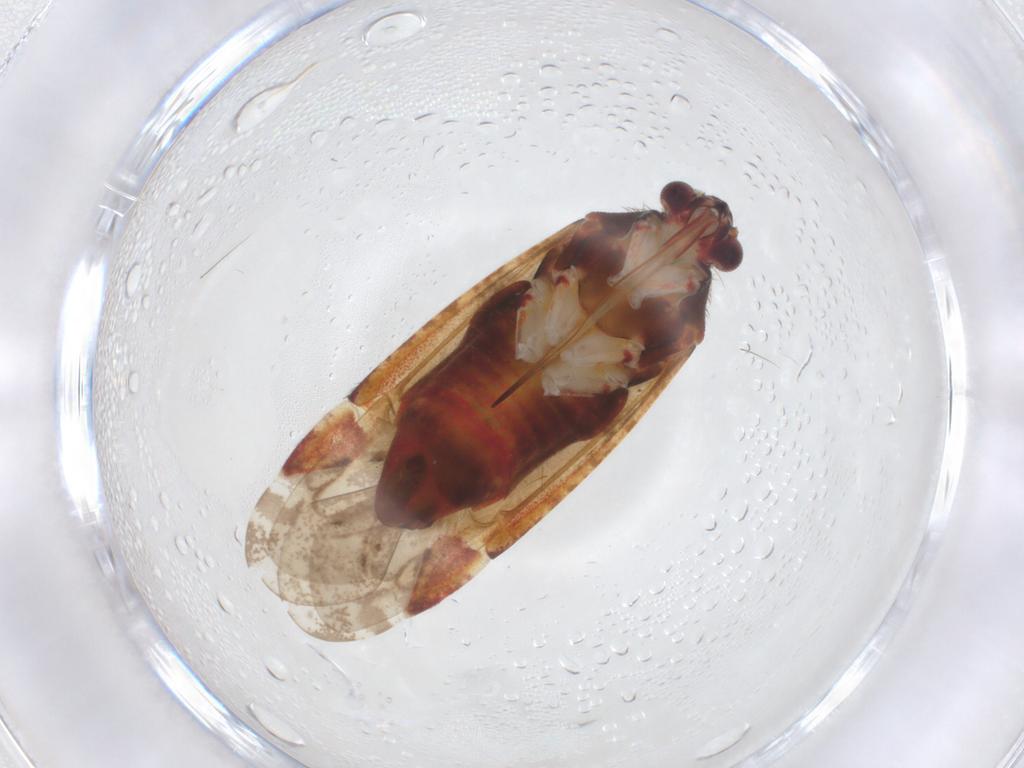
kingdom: Animalia
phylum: Arthropoda
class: Insecta
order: Hemiptera
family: Miridae
